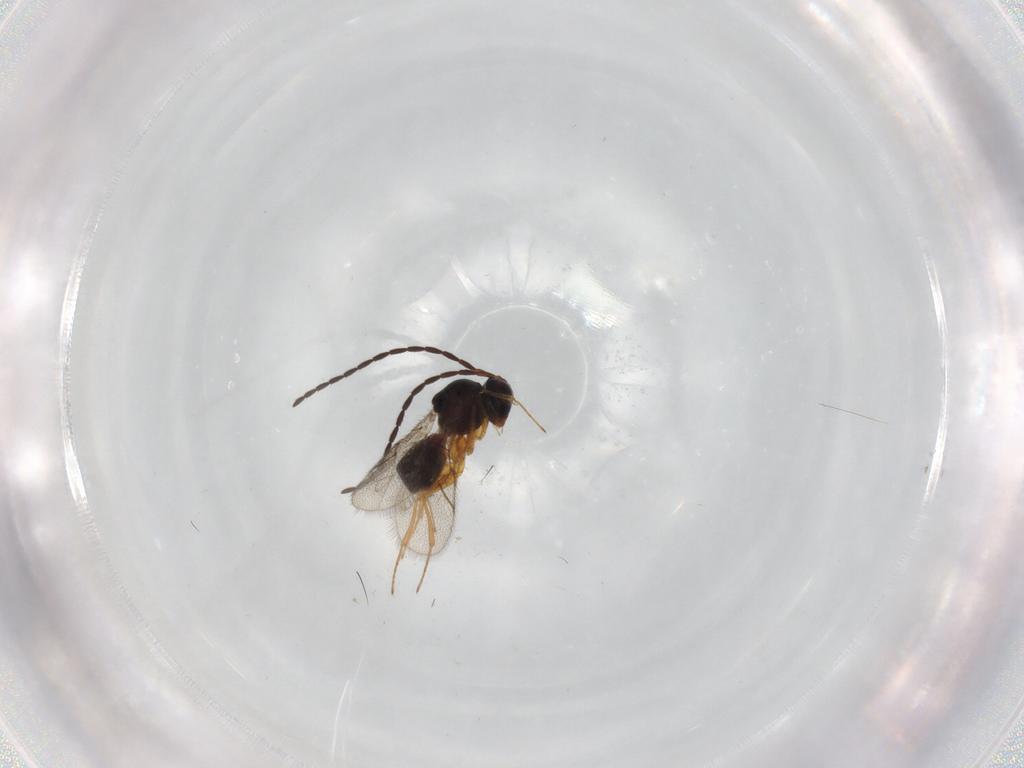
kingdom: Animalia
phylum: Arthropoda
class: Insecta
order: Hymenoptera
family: Figitidae
